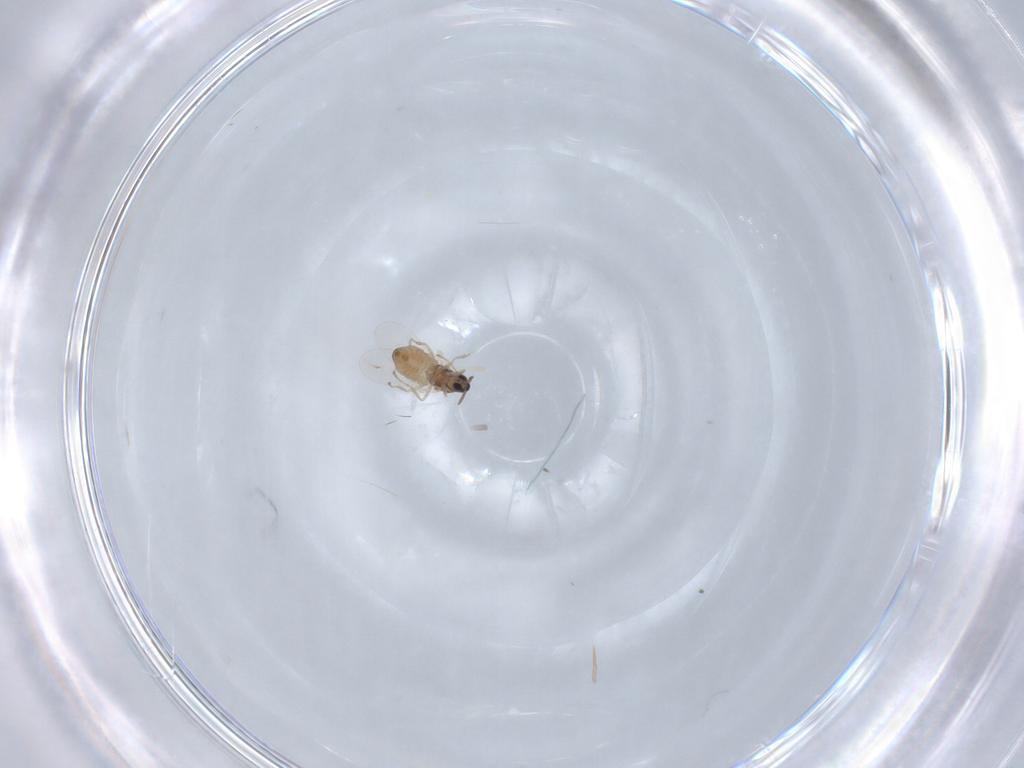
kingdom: Animalia
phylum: Arthropoda
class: Insecta
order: Diptera
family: Cecidomyiidae
